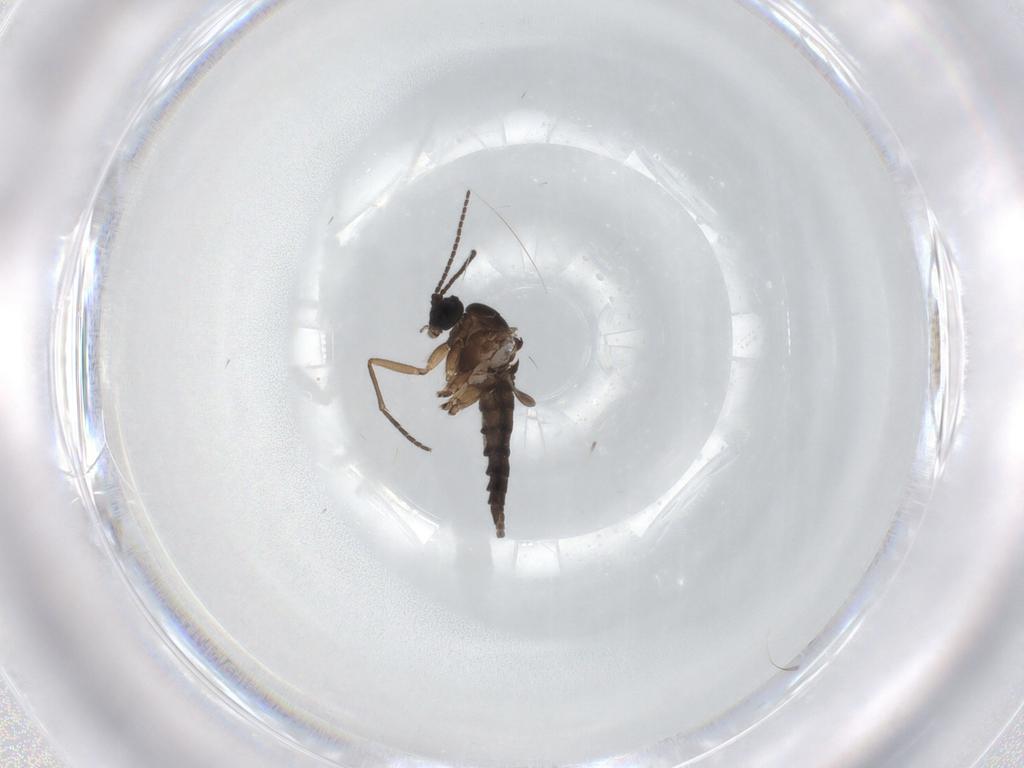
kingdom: Animalia
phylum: Arthropoda
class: Insecta
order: Diptera
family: Sciaridae
